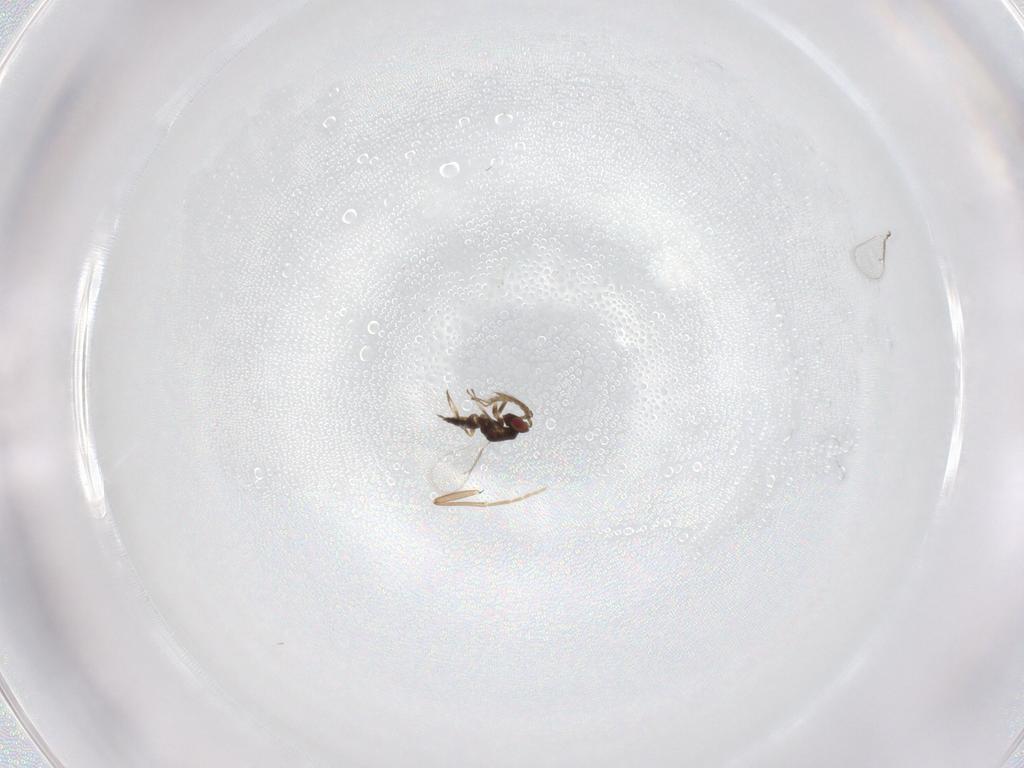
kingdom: Animalia
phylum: Arthropoda
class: Insecta
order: Hymenoptera
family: Eulophidae
